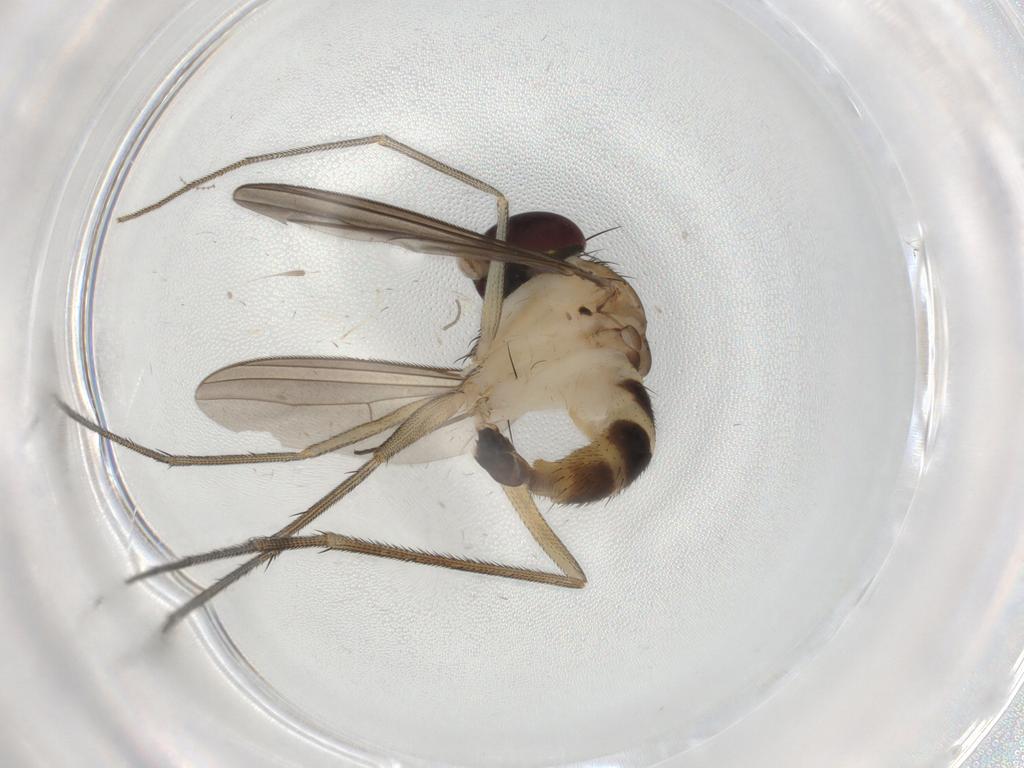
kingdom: Animalia
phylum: Arthropoda
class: Insecta
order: Diptera
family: Dolichopodidae
